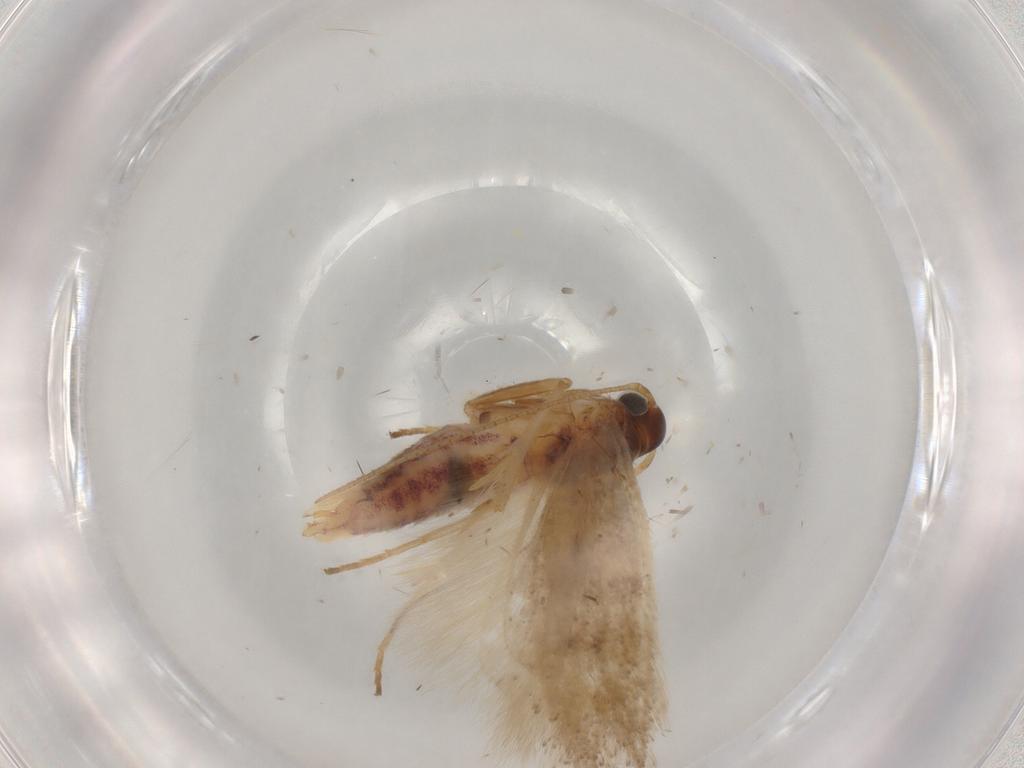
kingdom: Animalia
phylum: Arthropoda
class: Insecta
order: Lepidoptera
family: Gelechiidae
